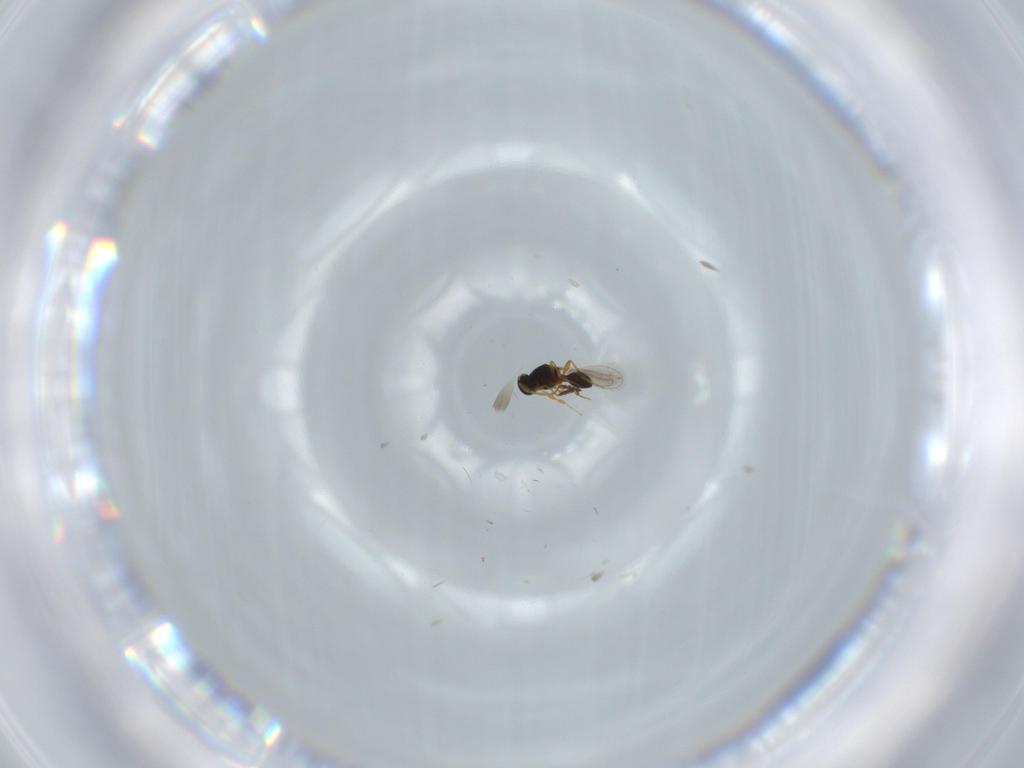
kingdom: Animalia
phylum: Arthropoda
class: Insecta
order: Hymenoptera
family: Platygastridae
